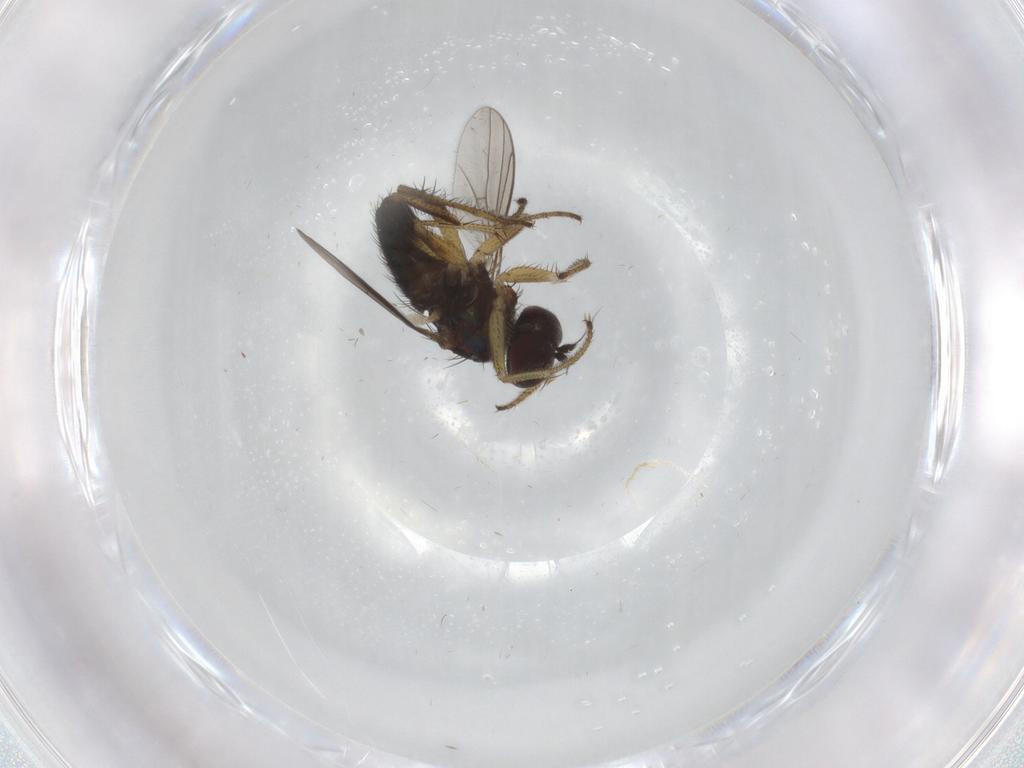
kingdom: Animalia
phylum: Arthropoda
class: Insecta
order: Diptera
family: Dolichopodidae
